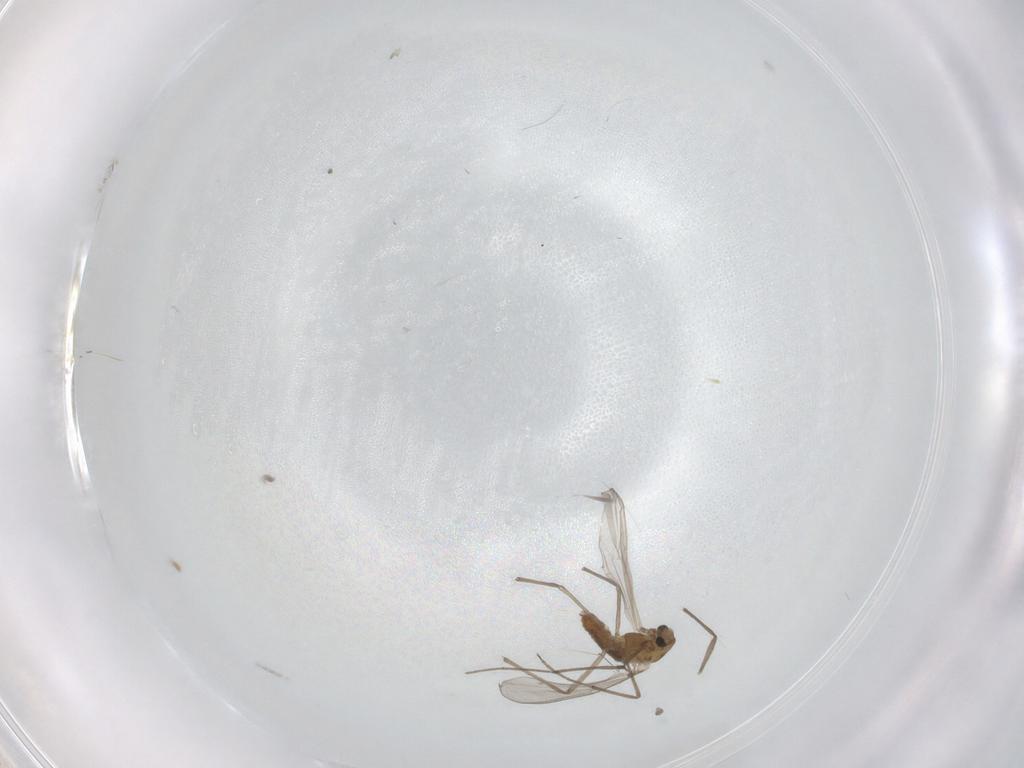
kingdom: Animalia
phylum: Arthropoda
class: Insecta
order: Diptera
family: Chironomidae
